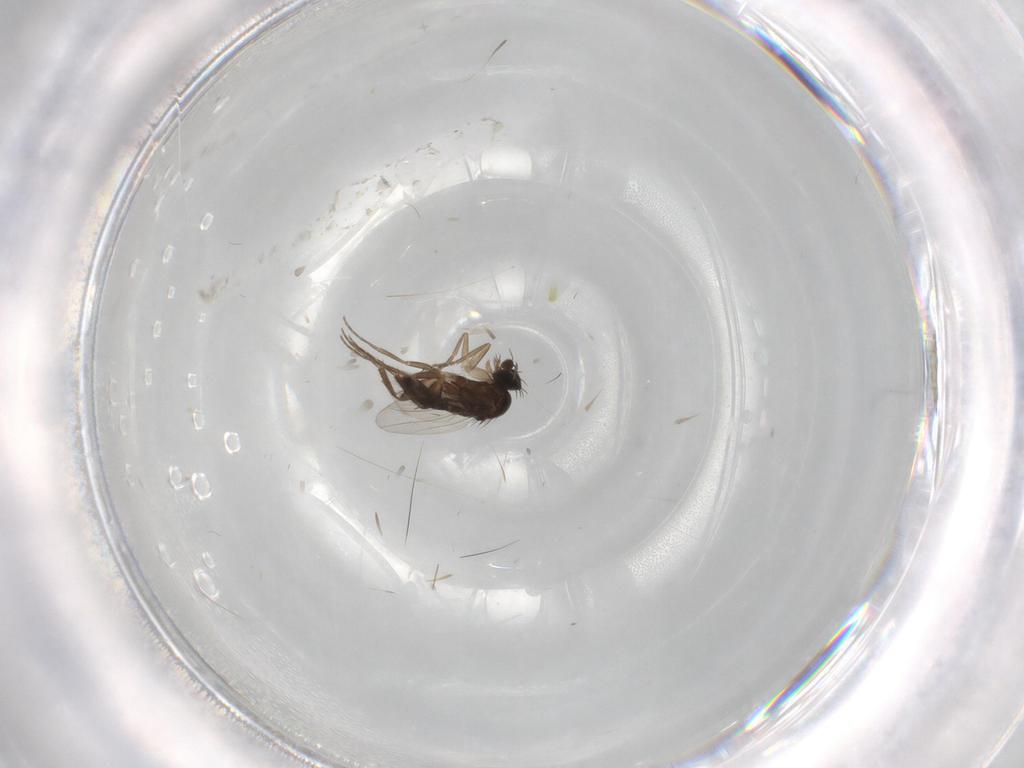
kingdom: Animalia
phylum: Arthropoda
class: Insecta
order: Diptera
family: Phoridae
